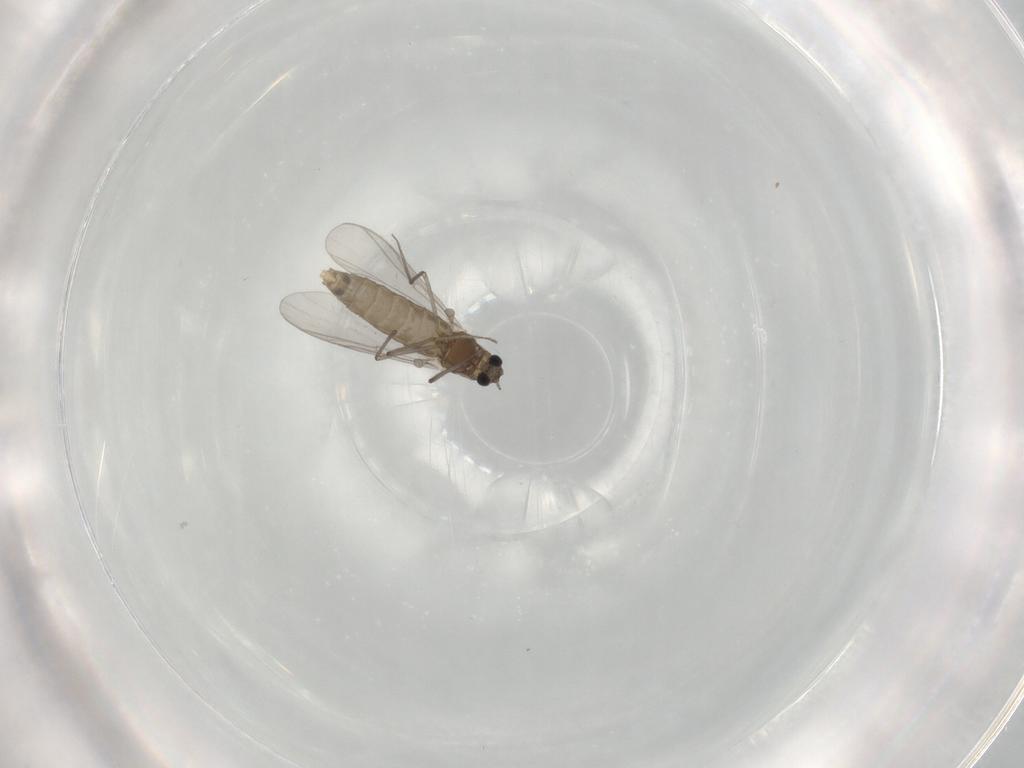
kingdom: Animalia
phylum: Arthropoda
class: Insecta
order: Diptera
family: Chironomidae
